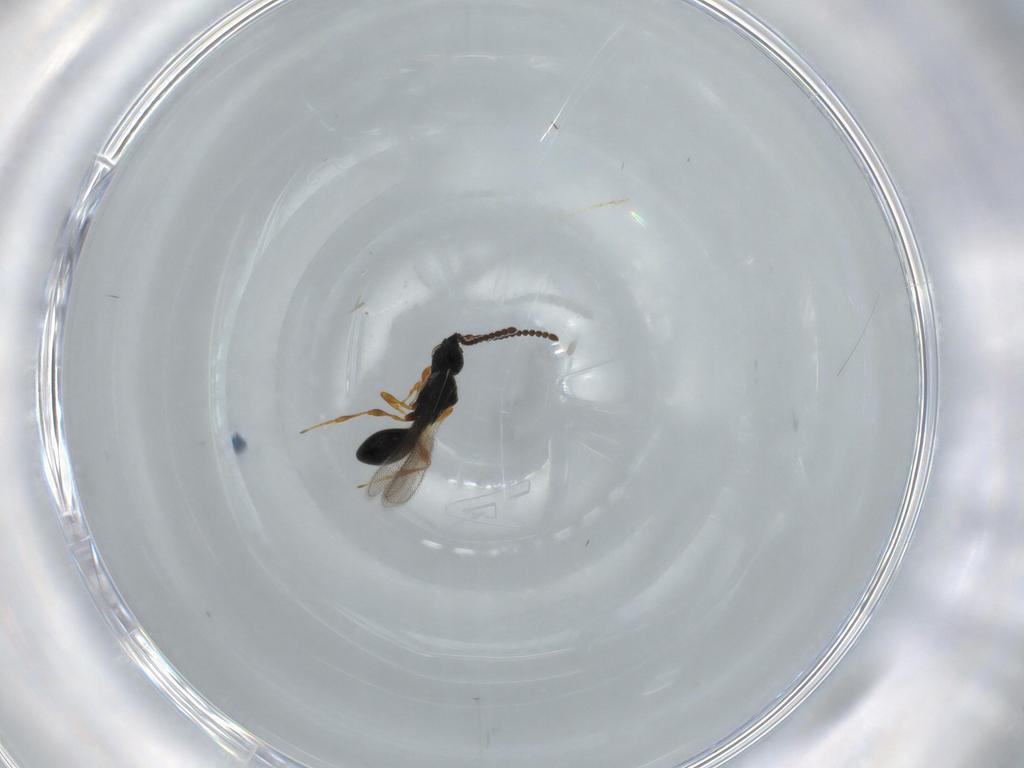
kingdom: Animalia
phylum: Arthropoda
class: Insecta
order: Hymenoptera
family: Diapriidae
